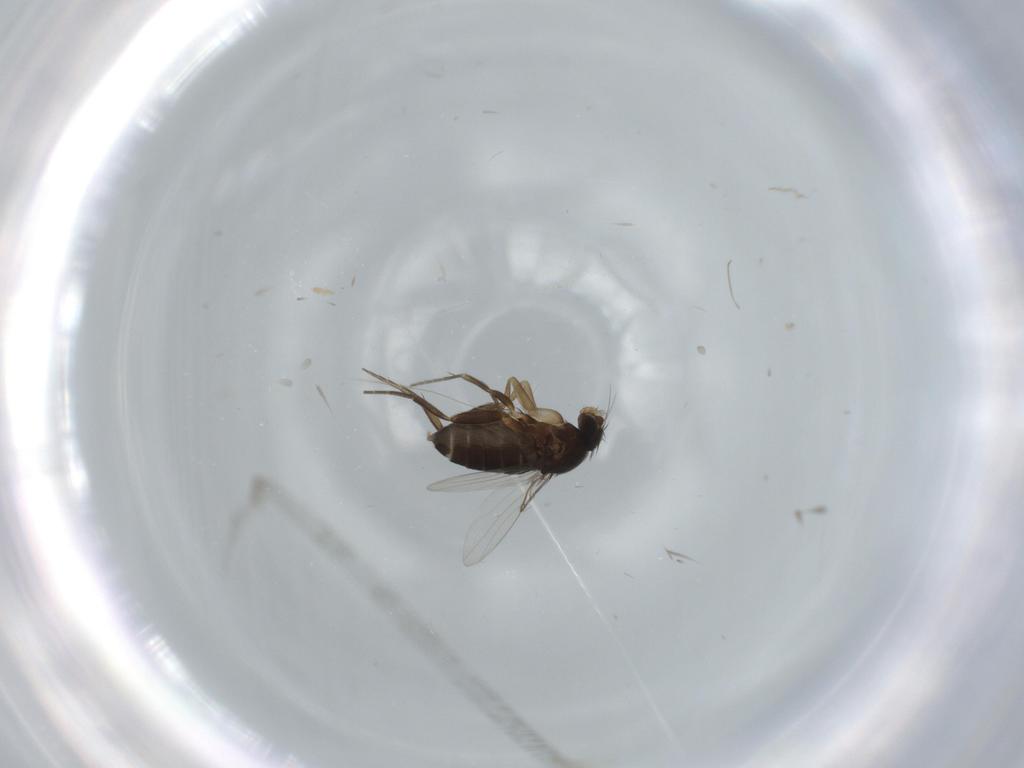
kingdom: Animalia
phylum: Arthropoda
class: Insecta
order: Diptera
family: Phoridae
